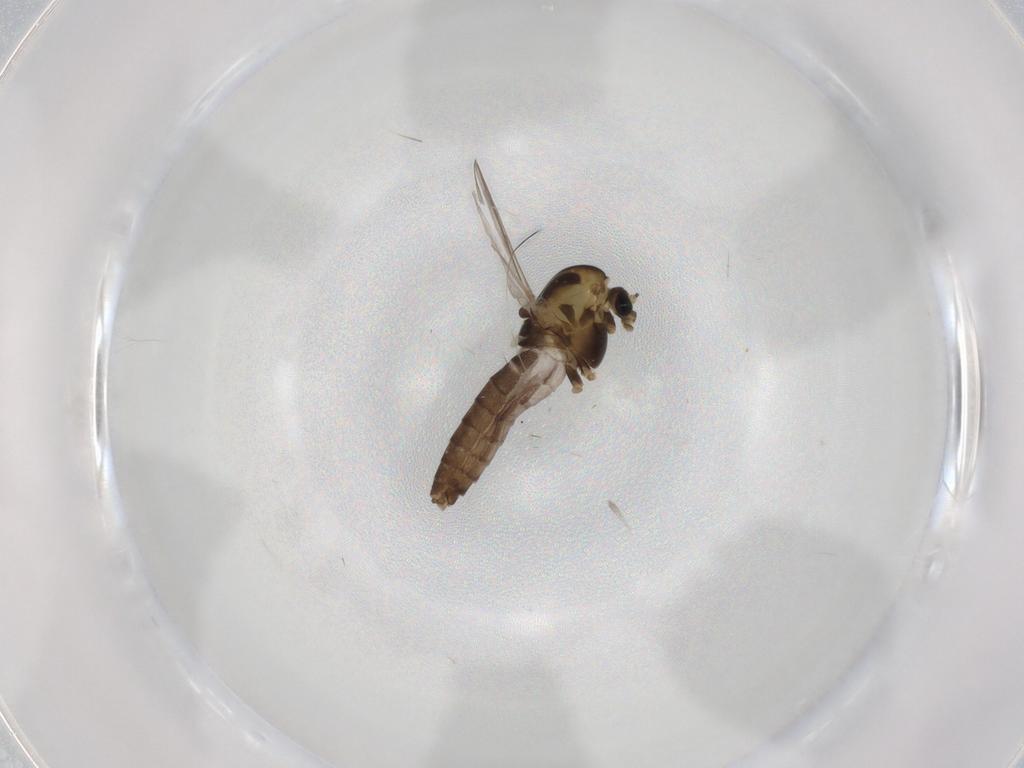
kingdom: Animalia
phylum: Arthropoda
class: Insecta
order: Diptera
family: Chironomidae
